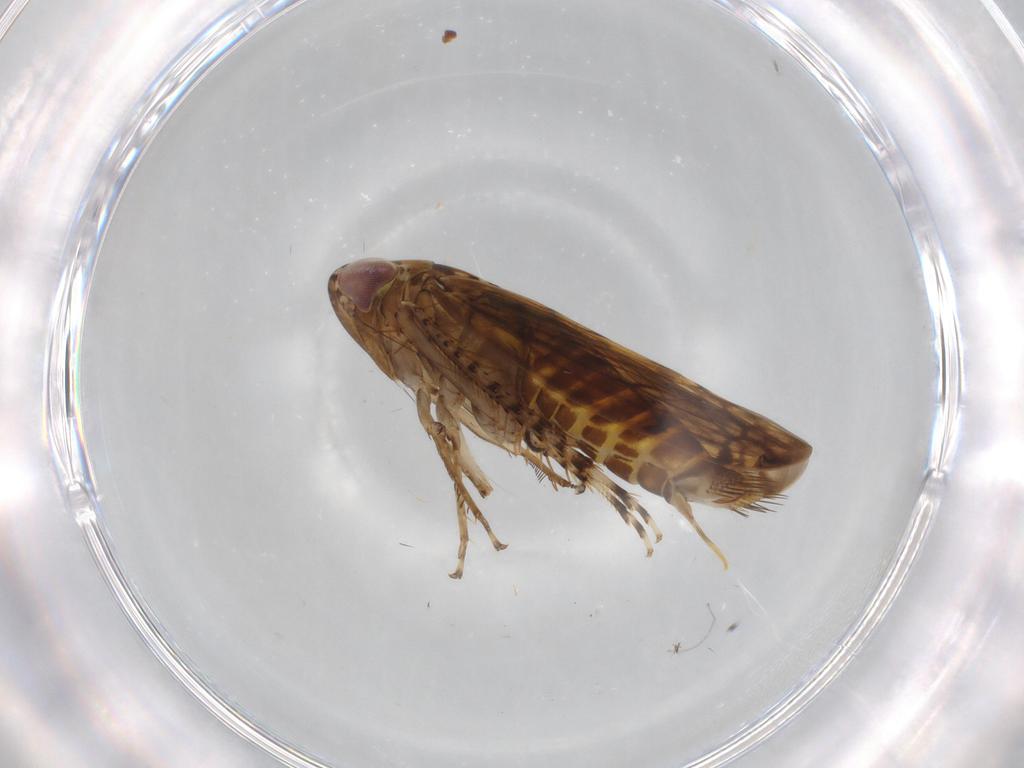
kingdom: Animalia
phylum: Arthropoda
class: Insecta
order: Hemiptera
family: Cicadellidae
